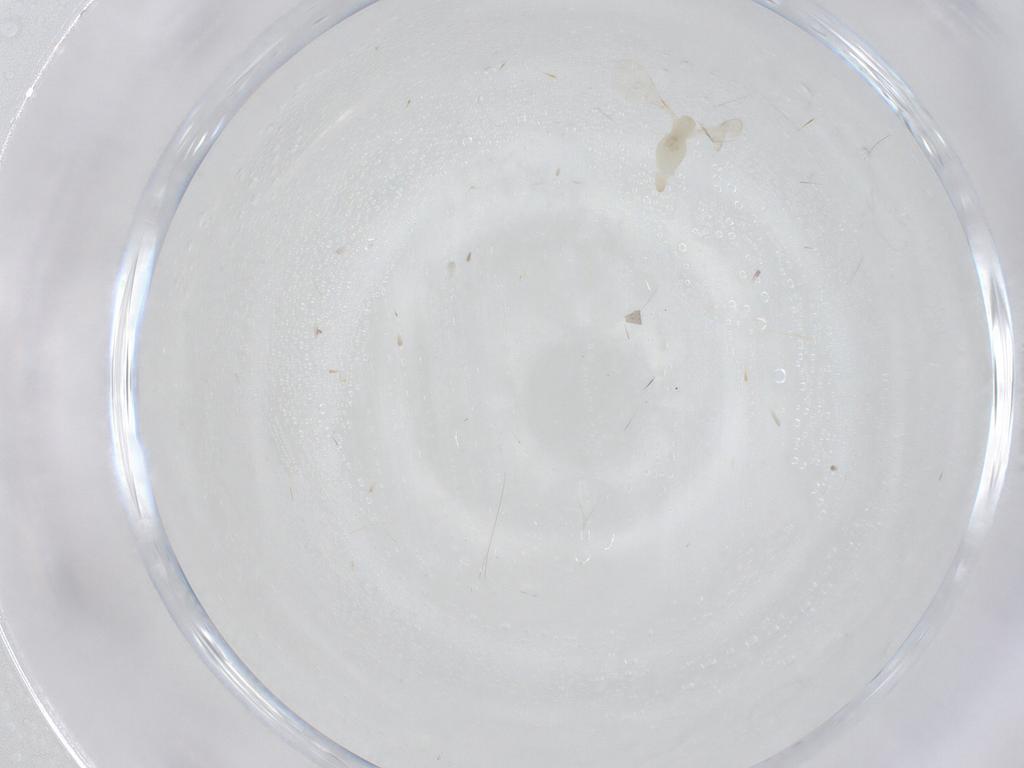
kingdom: Animalia
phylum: Arthropoda
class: Insecta
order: Diptera
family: Cecidomyiidae
